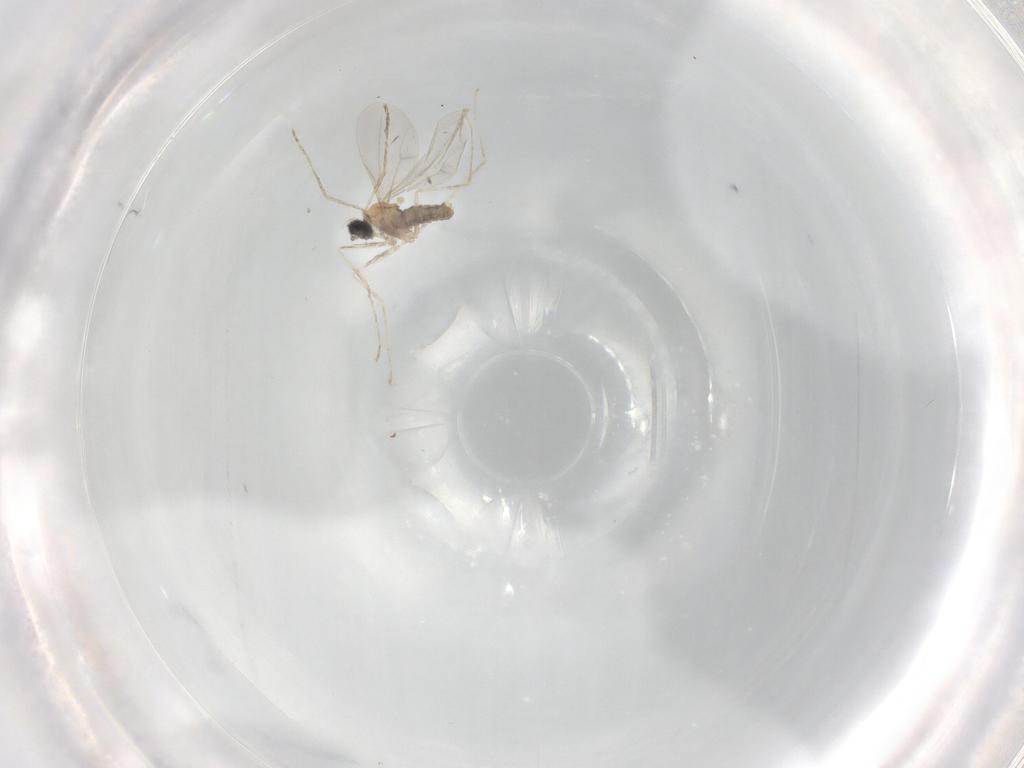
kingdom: Animalia
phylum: Arthropoda
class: Insecta
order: Diptera
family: Cecidomyiidae
